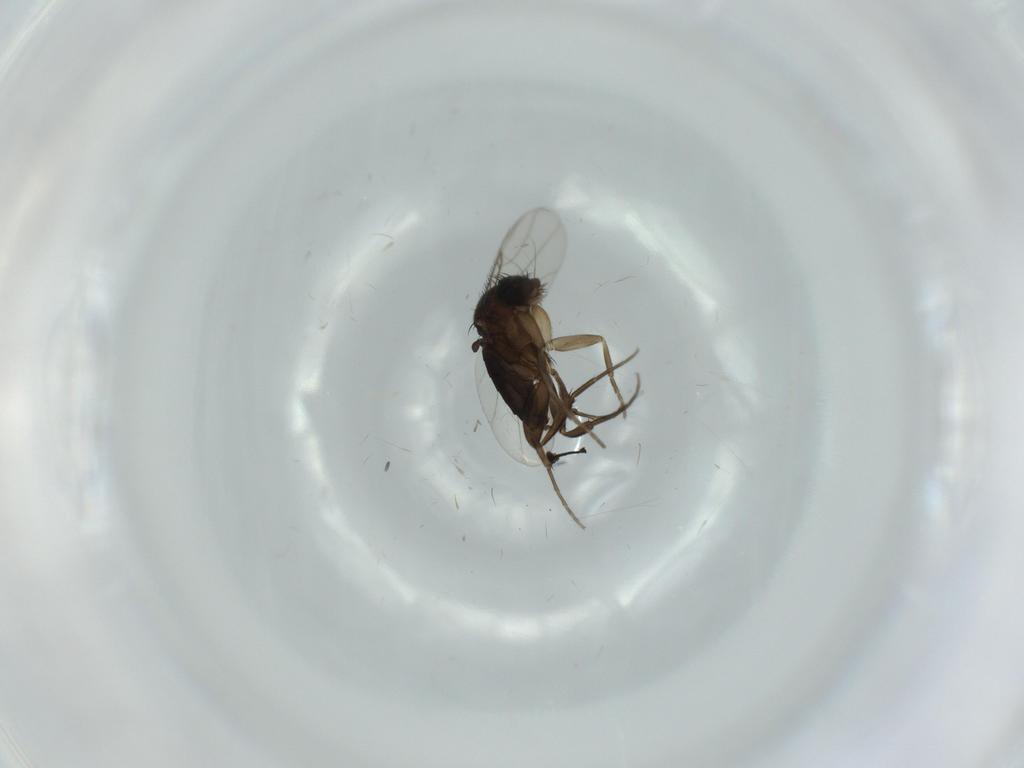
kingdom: Animalia
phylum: Arthropoda
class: Insecta
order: Diptera
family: Phoridae
